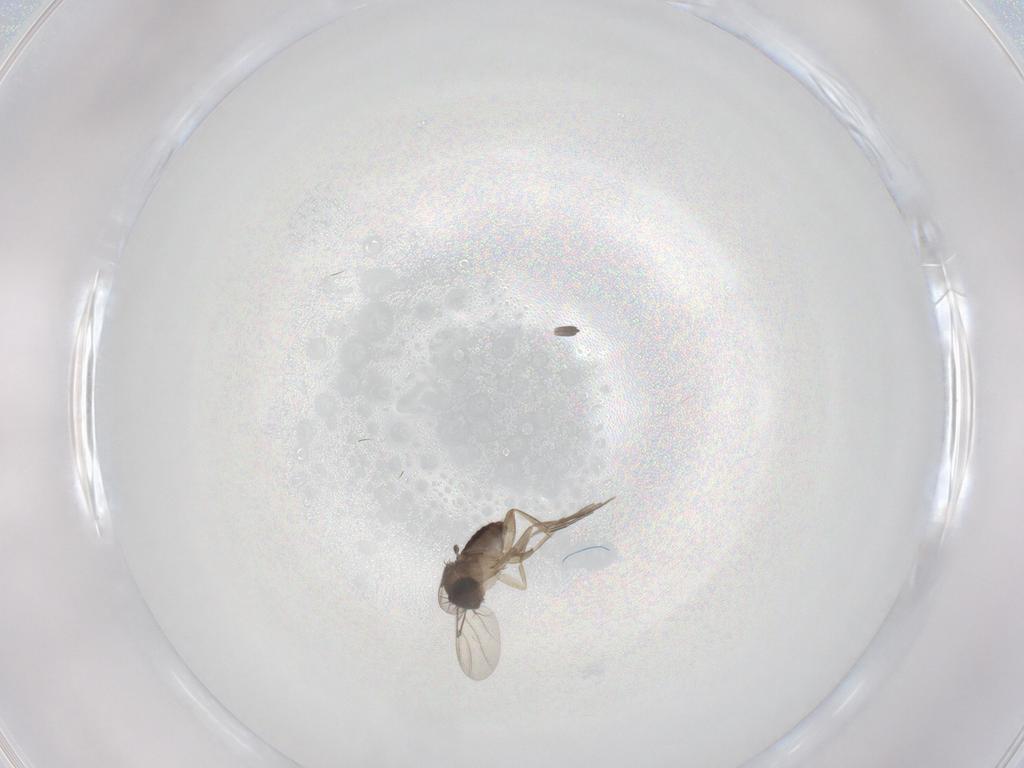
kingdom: Animalia
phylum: Arthropoda
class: Insecta
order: Diptera
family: Phoridae
